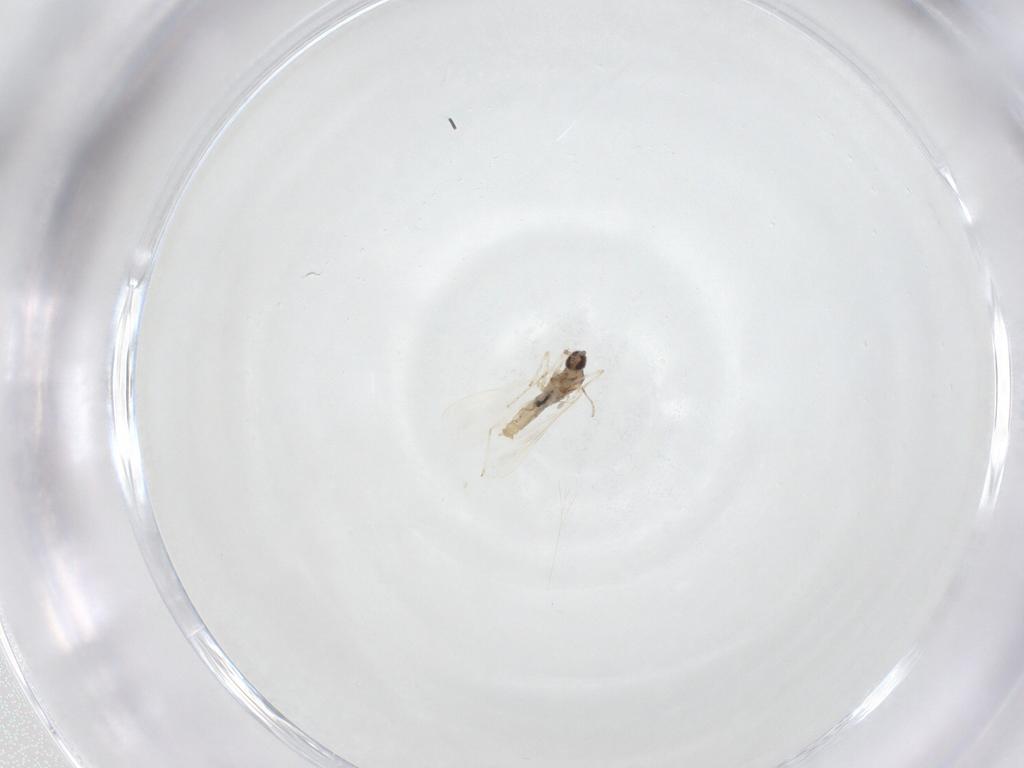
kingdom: Animalia
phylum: Arthropoda
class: Insecta
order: Diptera
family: Cecidomyiidae
